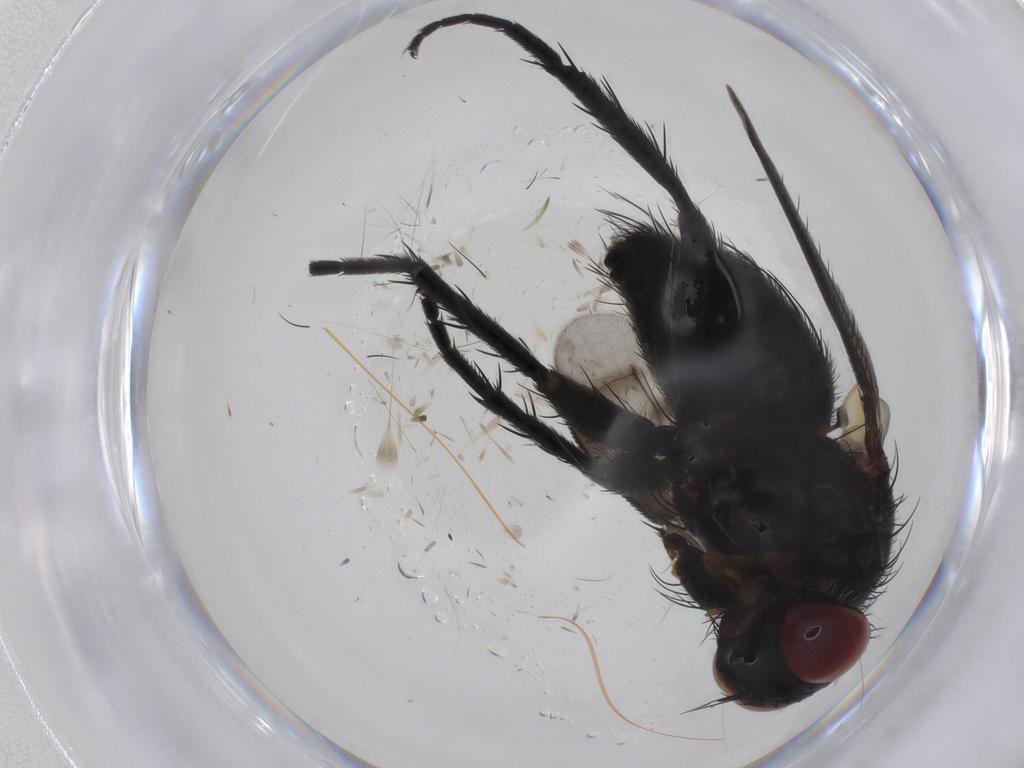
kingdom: Animalia
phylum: Arthropoda
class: Insecta
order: Diptera
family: Tachinidae
